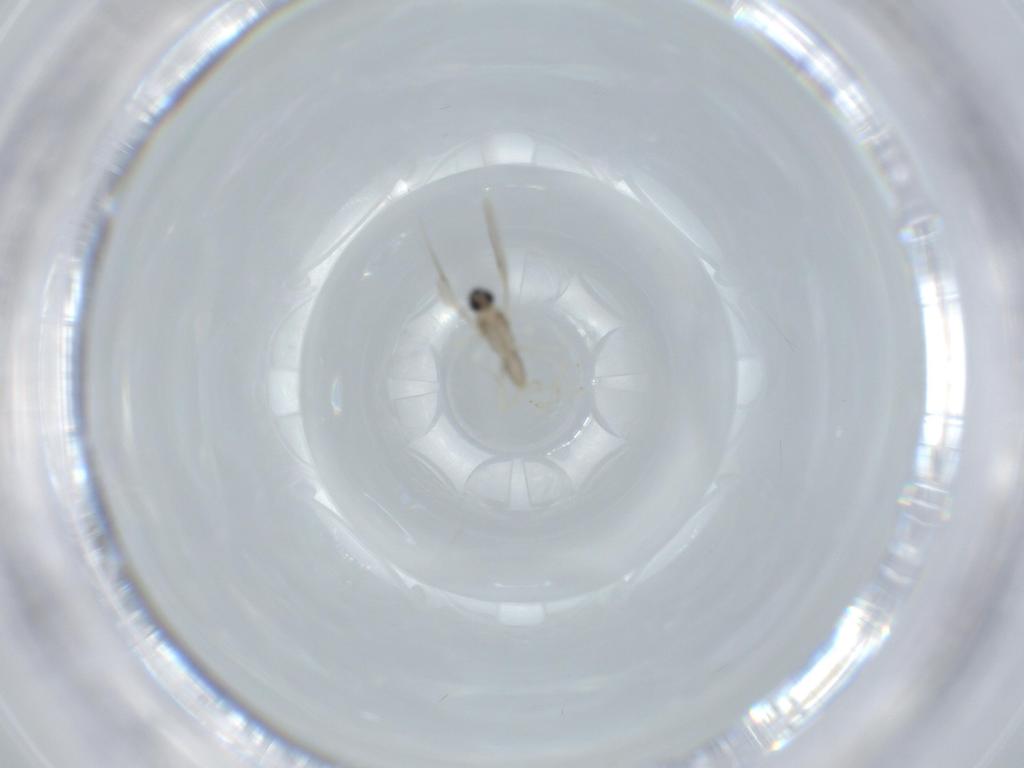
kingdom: Animalia
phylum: Arthropoda
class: Insecta
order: Diptera
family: Cecidomyiidae
